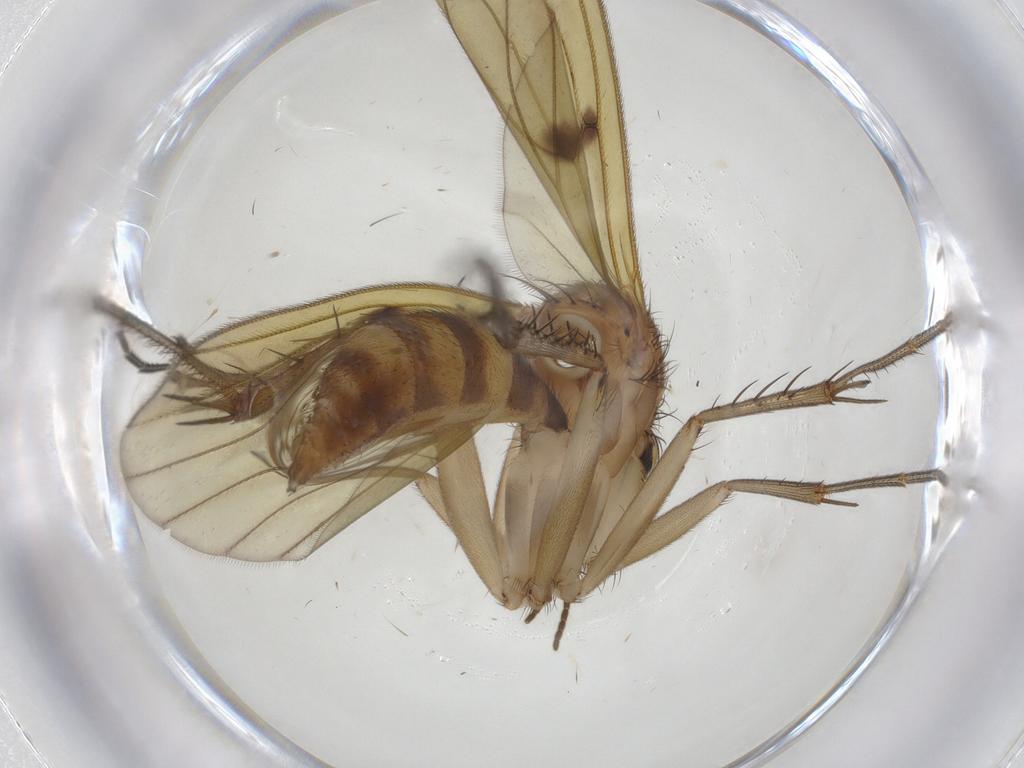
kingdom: Animalia
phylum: Arthropoda
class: Insecta
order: Diptera
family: Mycetophilidae
